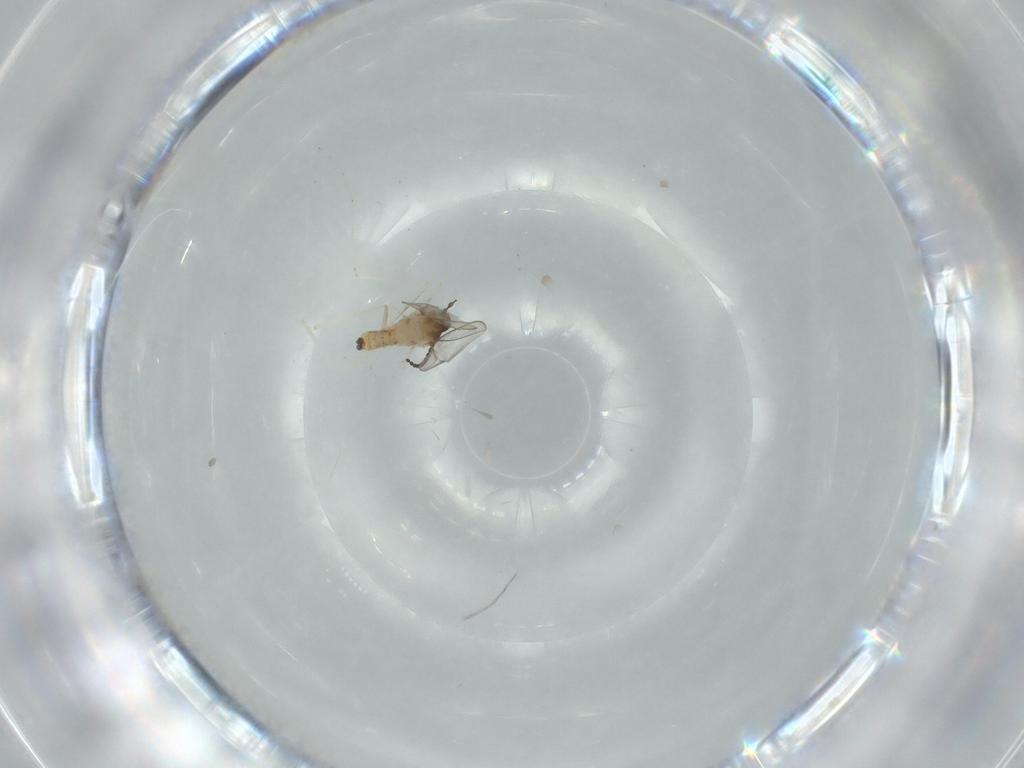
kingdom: Animalia
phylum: Arthropoda
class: Insecta
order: Diptera
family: Cecidomyiidae
